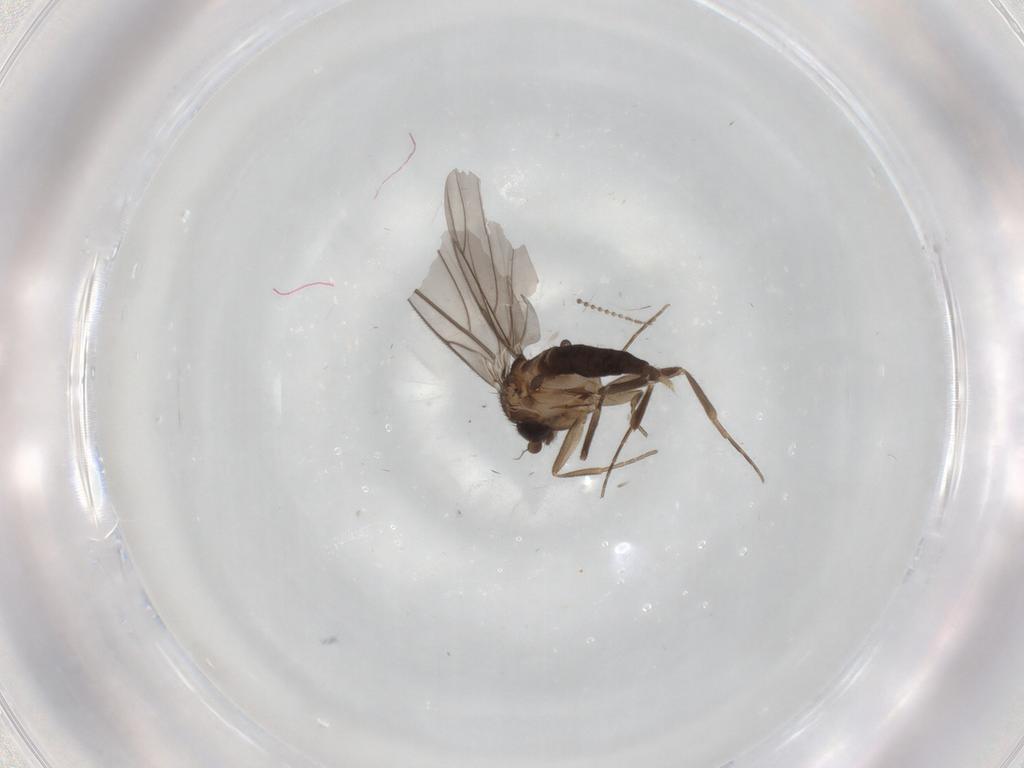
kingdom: Animalia
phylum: Arthropoda
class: Insecta
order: Diptera
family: Ceratopogonidae
